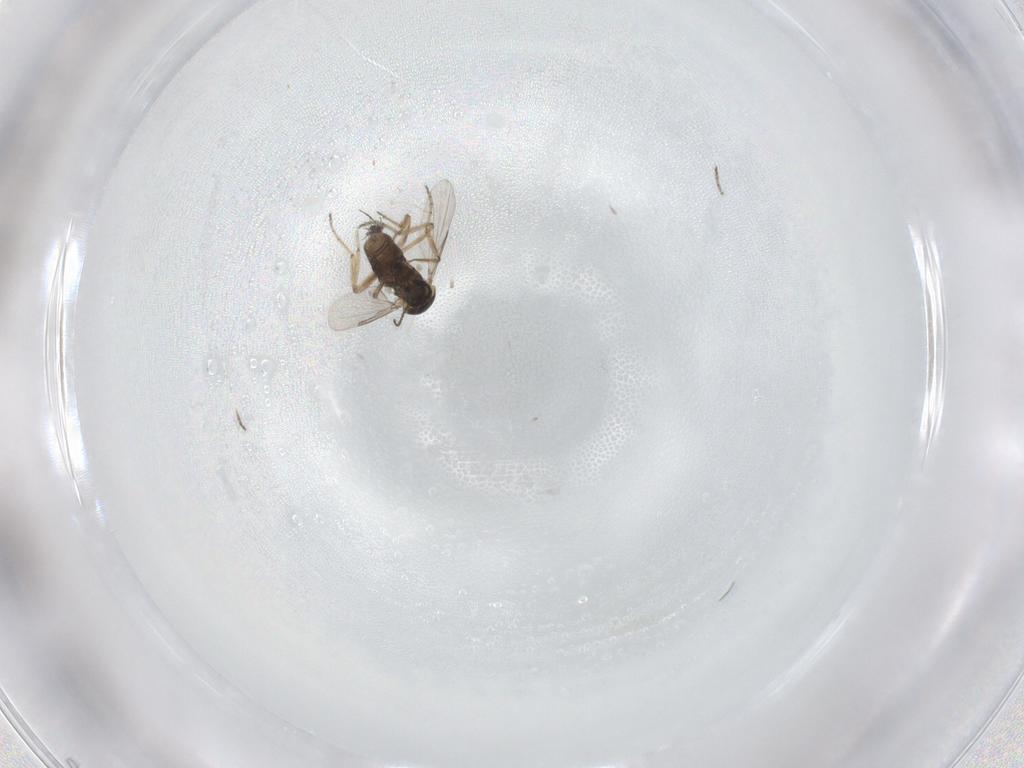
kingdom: Animalia
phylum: Arthropoda
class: Insecta
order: Diptera
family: Ceratopogonidae
